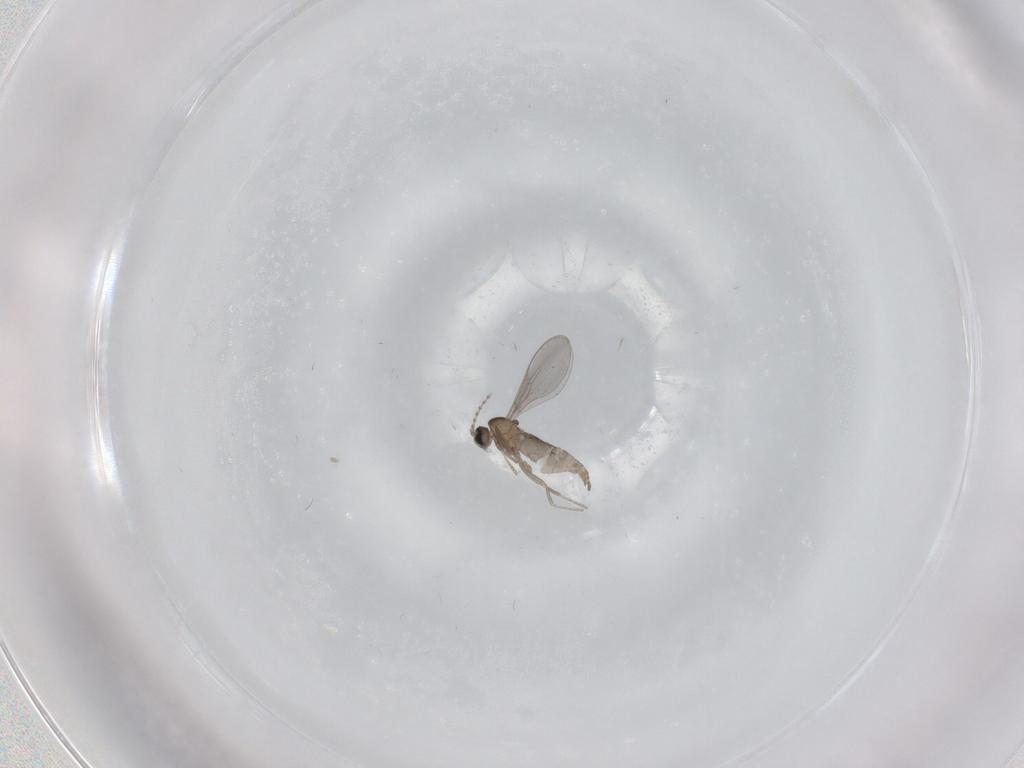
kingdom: Animalia
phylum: Arthropoda
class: Insecta
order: Diptera
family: Cecidomyiidae
